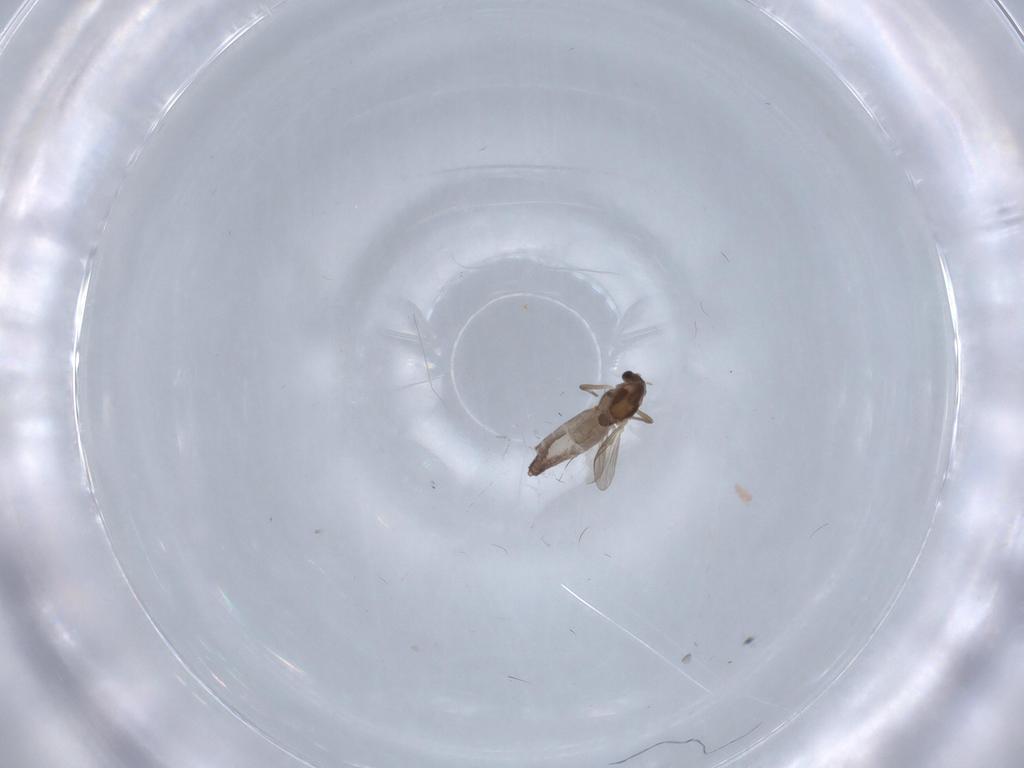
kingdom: Animalia
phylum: Arthropoda
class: Insecta
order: Diptera
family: Chironomidae
